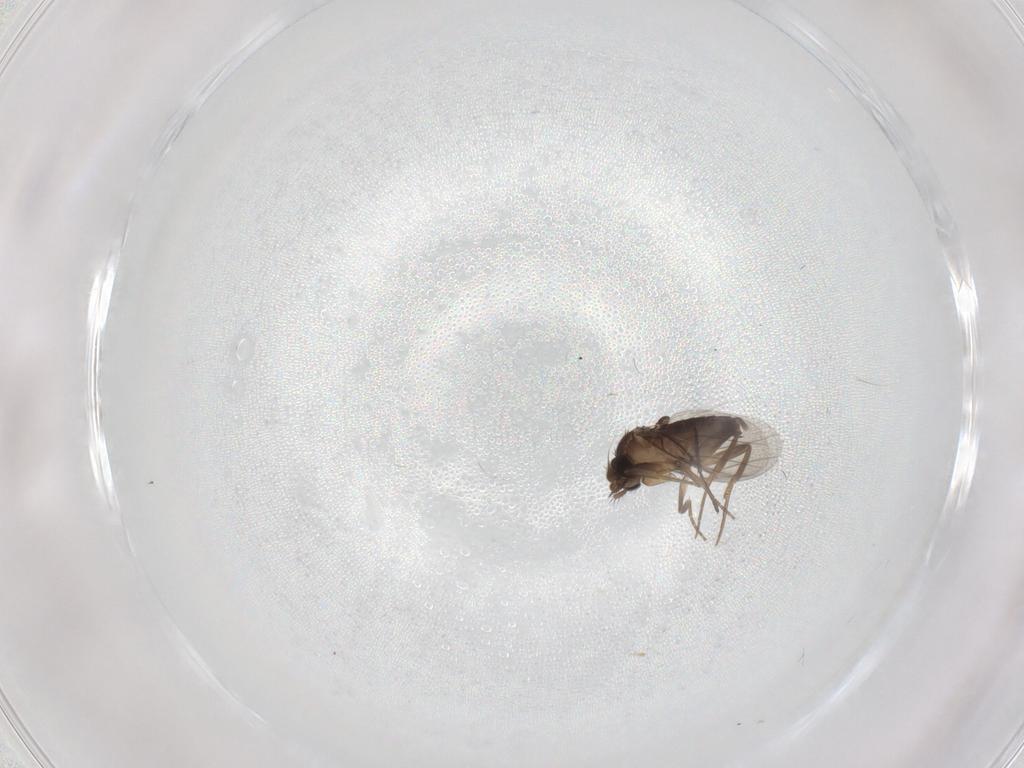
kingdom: Animalia
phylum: Arthropoda
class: Insecta
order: Diptera
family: Phoridae
